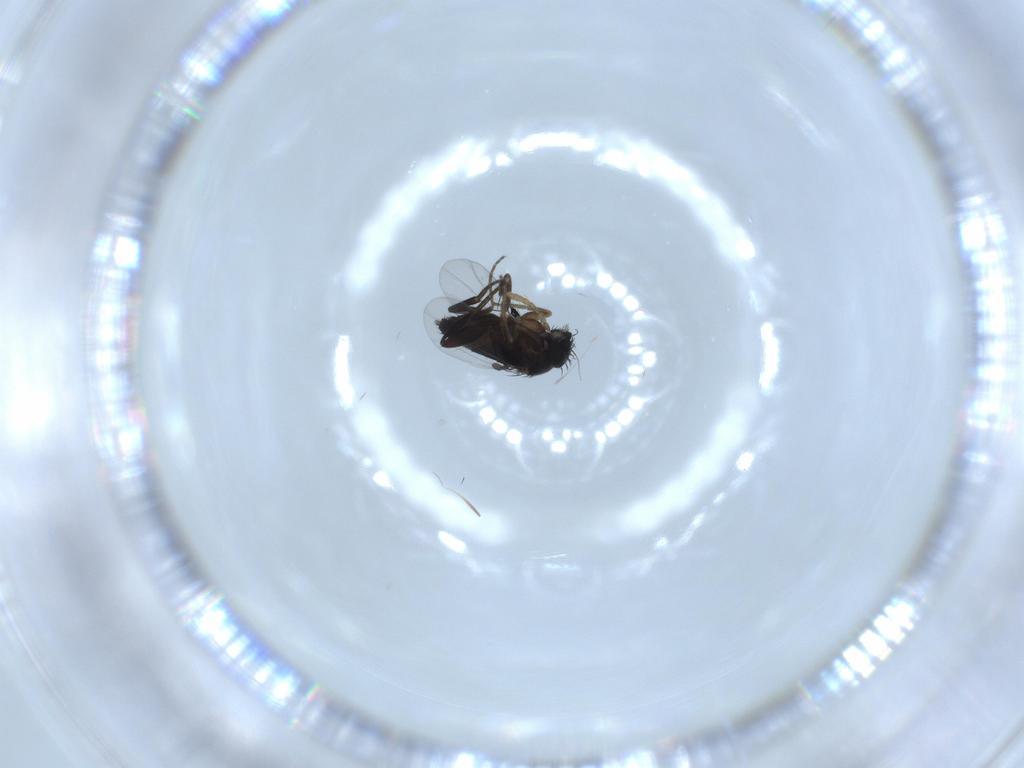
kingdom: Animalia
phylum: Arthropoda
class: Insecta
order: Diptera
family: Phoridae
